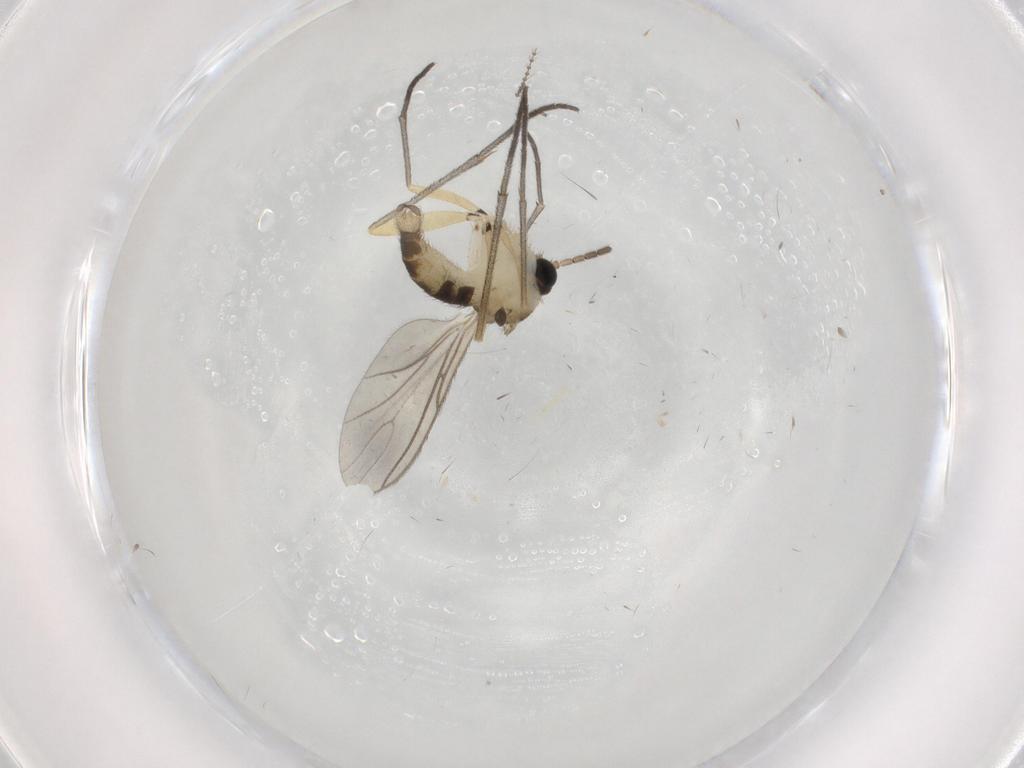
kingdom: Animalia
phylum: Arthropoda
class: Insecta
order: Diptera
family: Sciaridae
